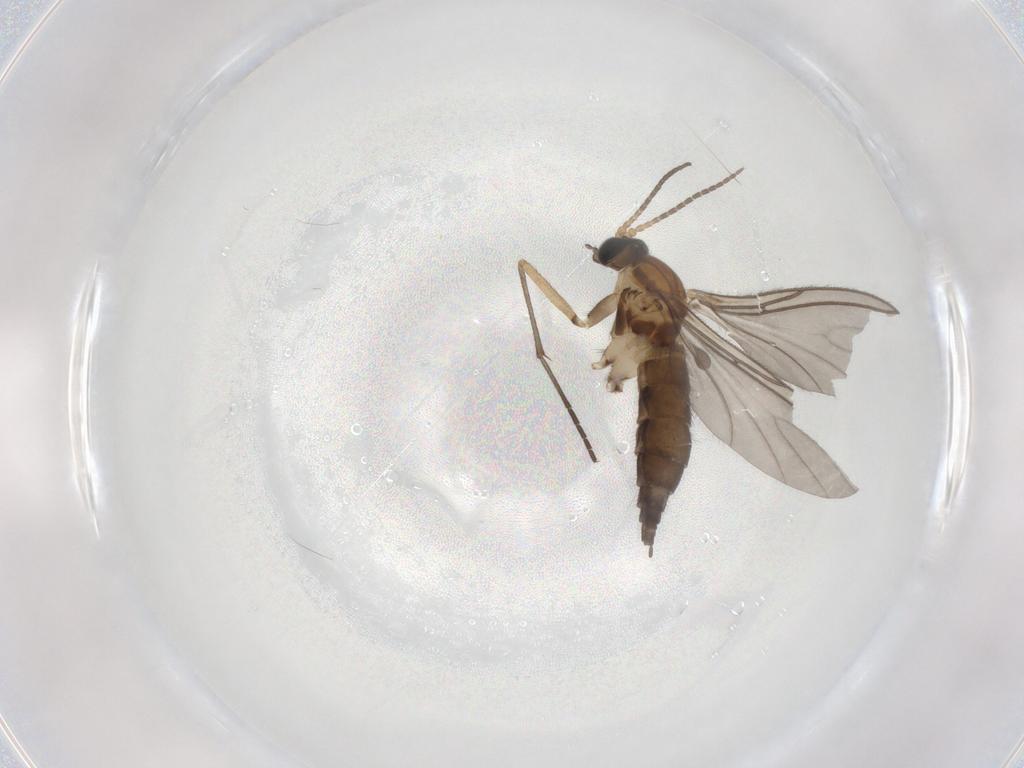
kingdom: Animalia
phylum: Arthropoda
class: Insecta
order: Diptera
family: Sciaridae
